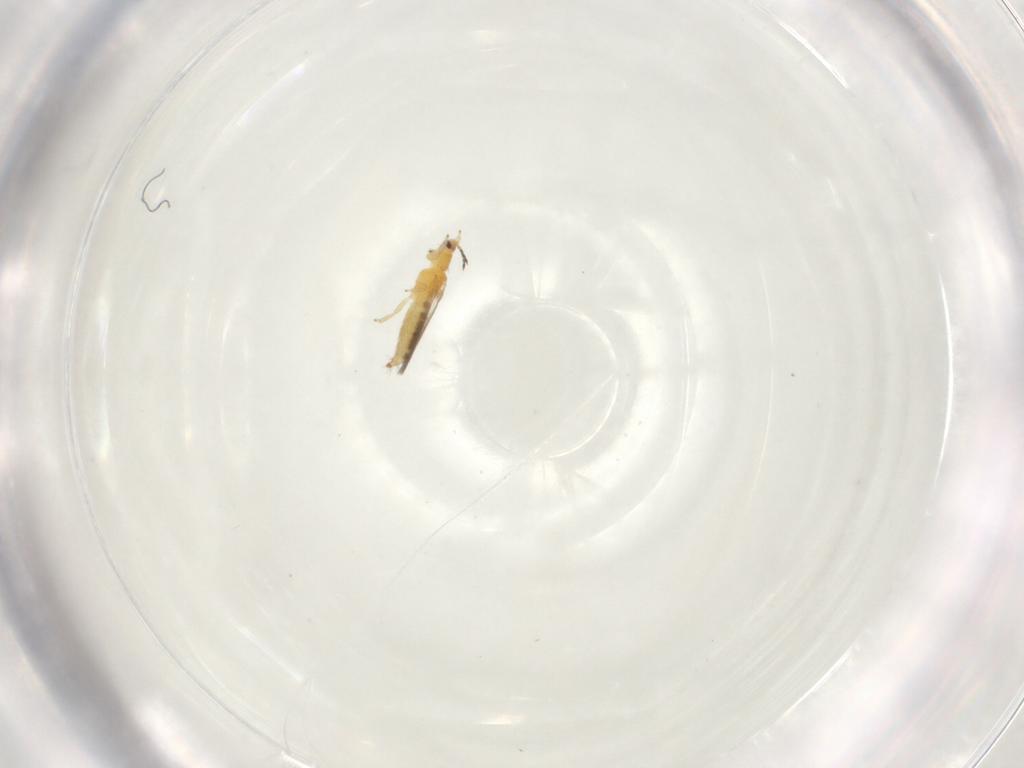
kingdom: Animalia
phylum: Arthropoda
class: Insecta
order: Thysanoptera
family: Thripidae
